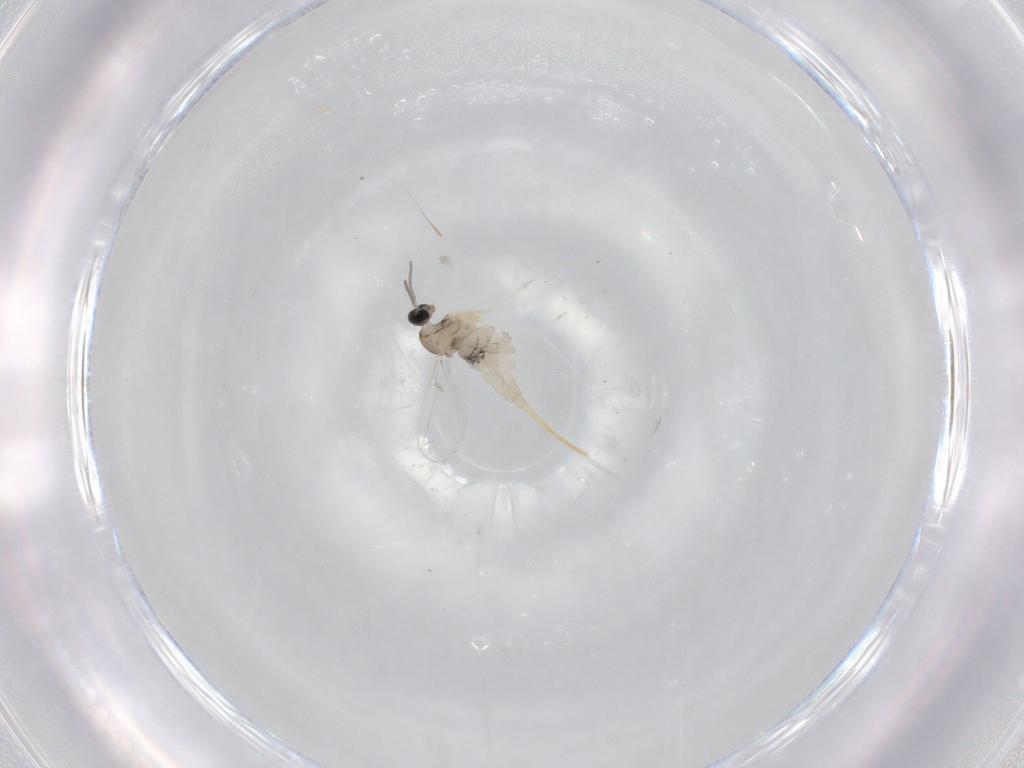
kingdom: Animalia
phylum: Arthropoda
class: Insecta
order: Diptera
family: Cecidomyiidae
